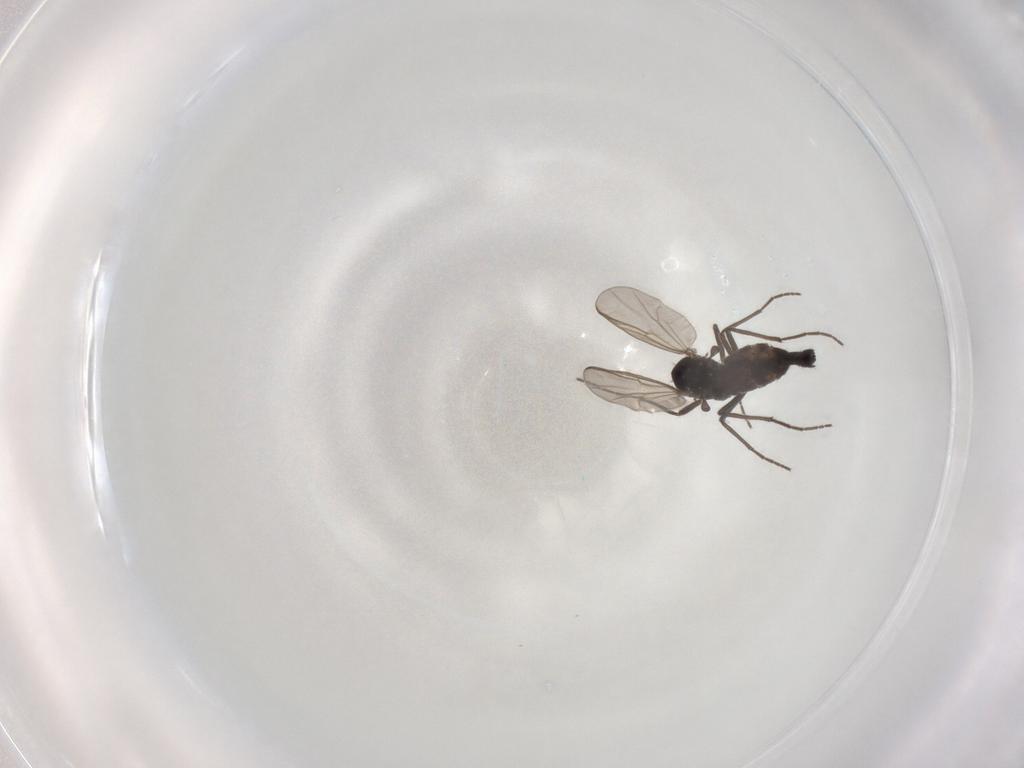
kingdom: Animalia
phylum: Arthropoda
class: Insecta
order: Diptera
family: Chironomidae
